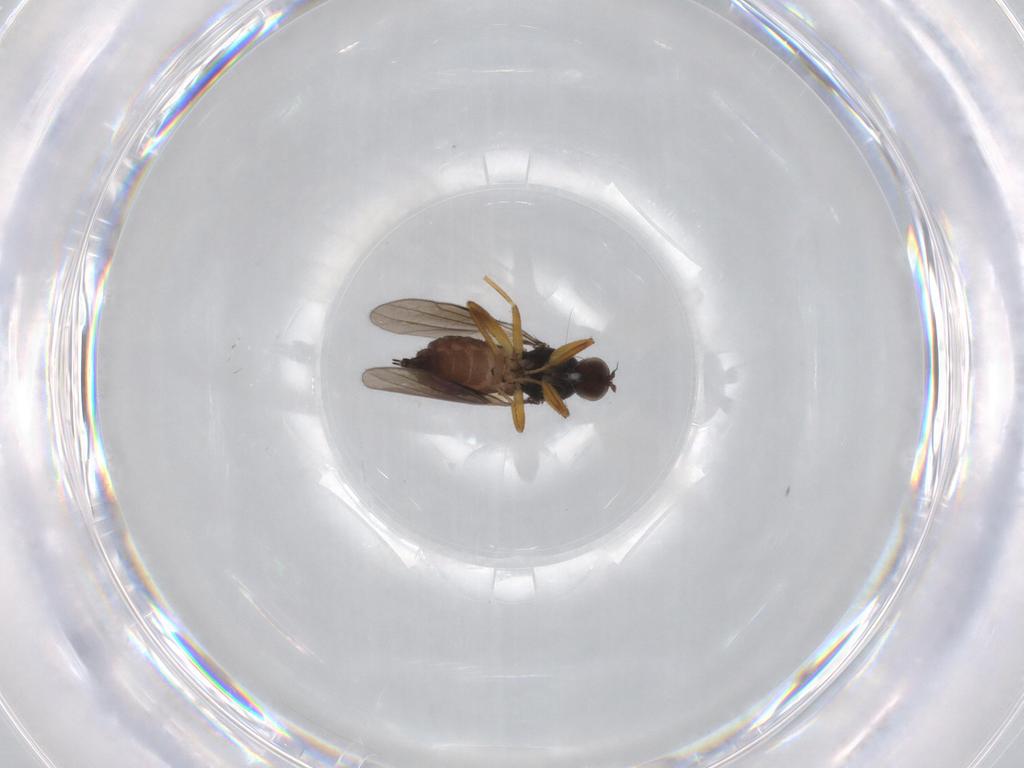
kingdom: Animalia
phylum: Arthropoda
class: Insecta
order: Diptera
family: Hybotidae
